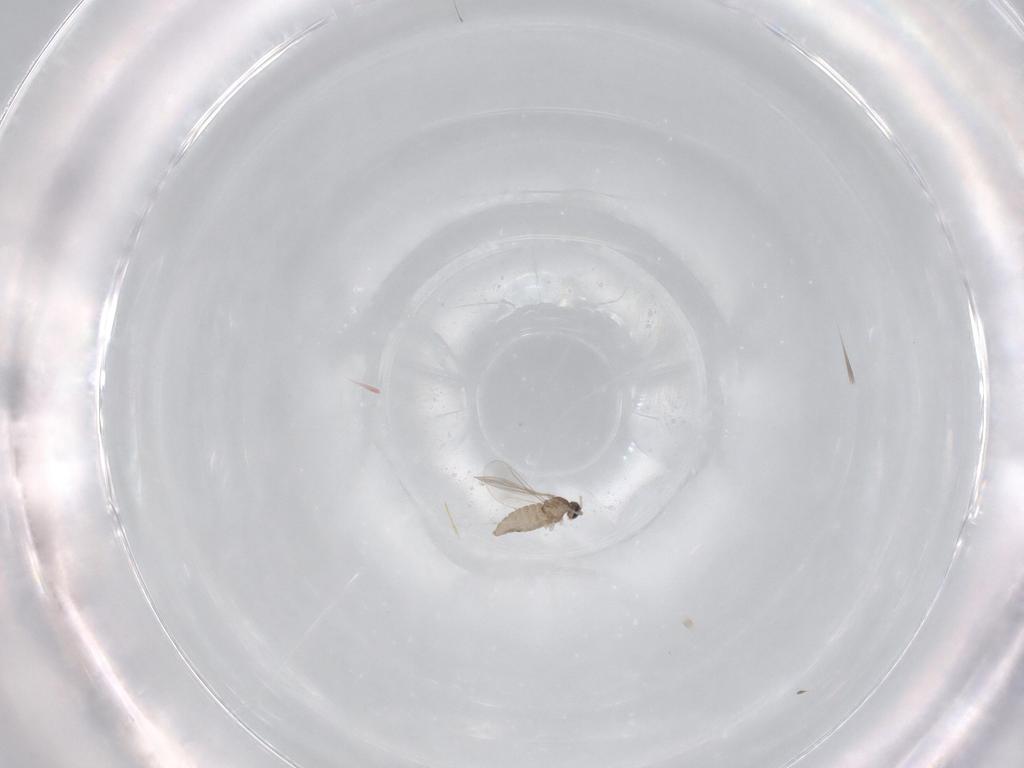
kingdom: Animalia
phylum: Arthropoda
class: Insecta
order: Diptera
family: Cecidomyiidae
